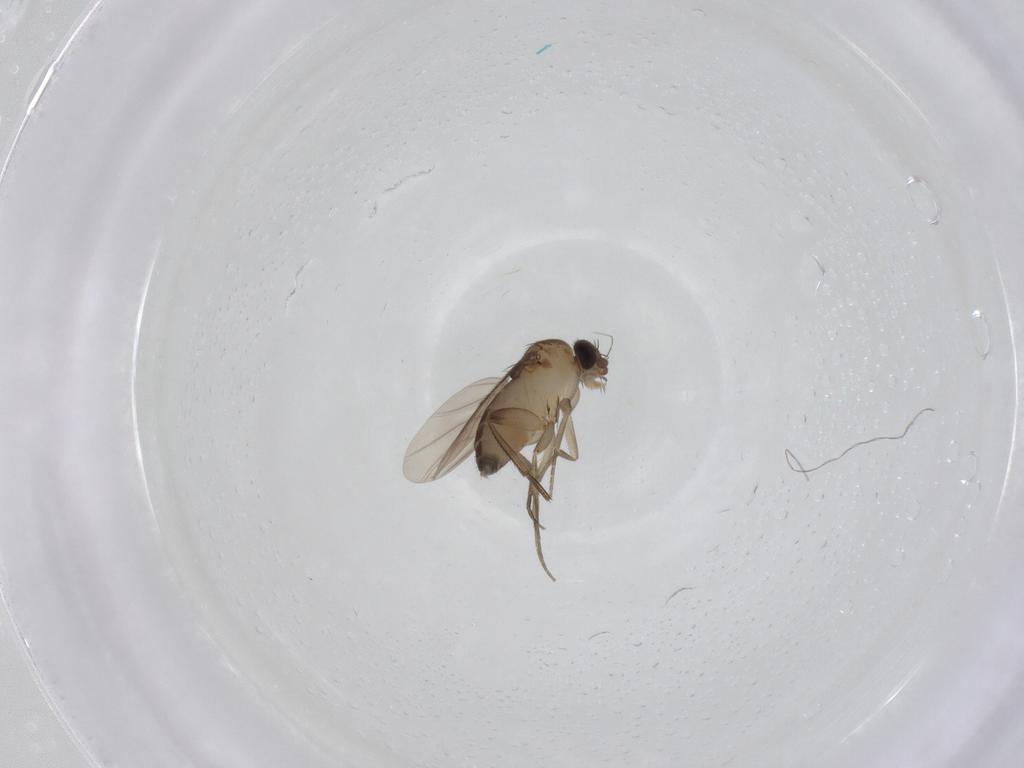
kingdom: Animalia
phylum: Arthropoda
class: Insecta
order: Diptera
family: Phoridae
